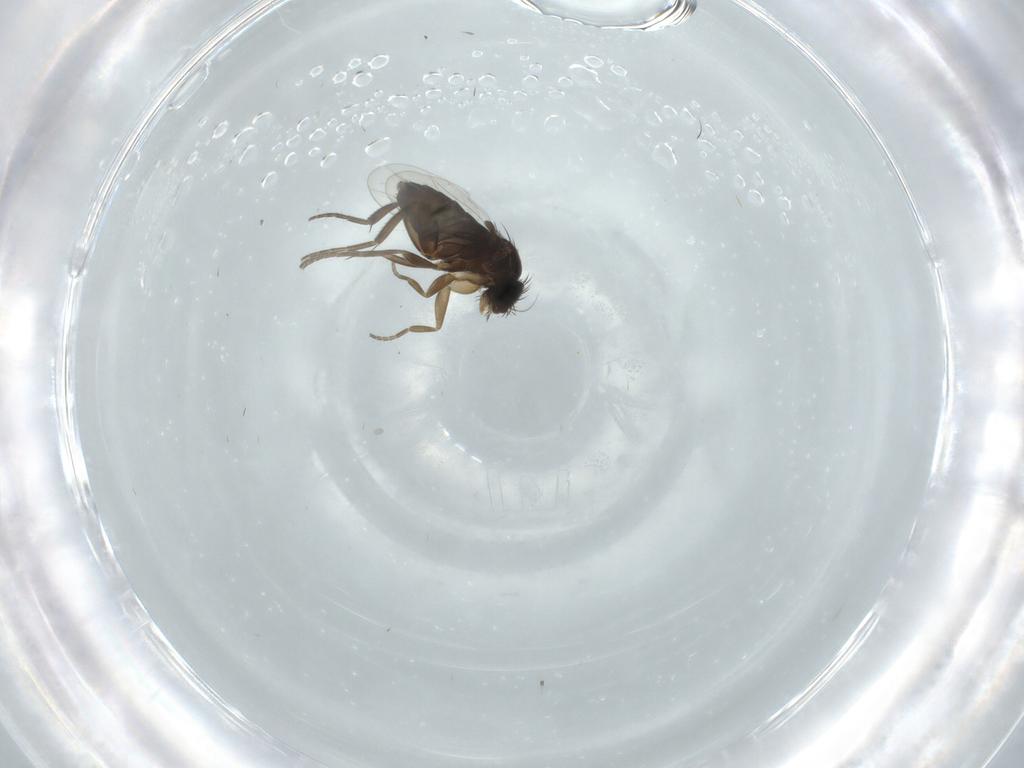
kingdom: Animalia
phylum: Arthropoda
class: Insecta
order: Diptera
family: Phoridae
